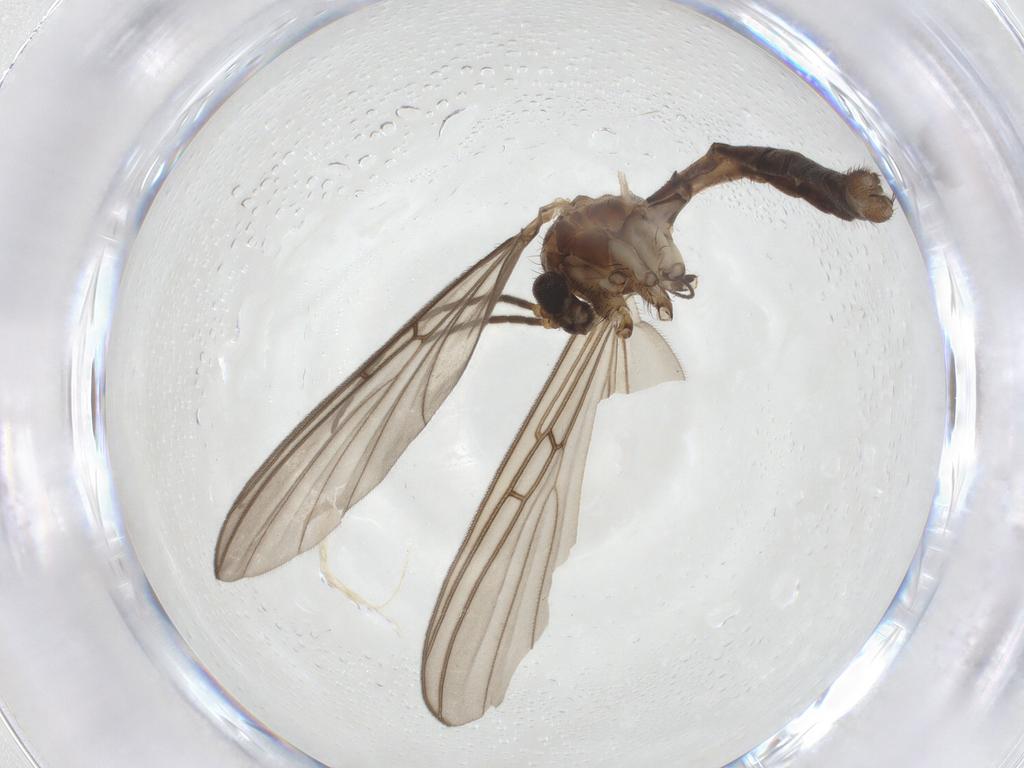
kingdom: Animalia
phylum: Arthropoda
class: Insecta
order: Diptera
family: Mycetophilidae
